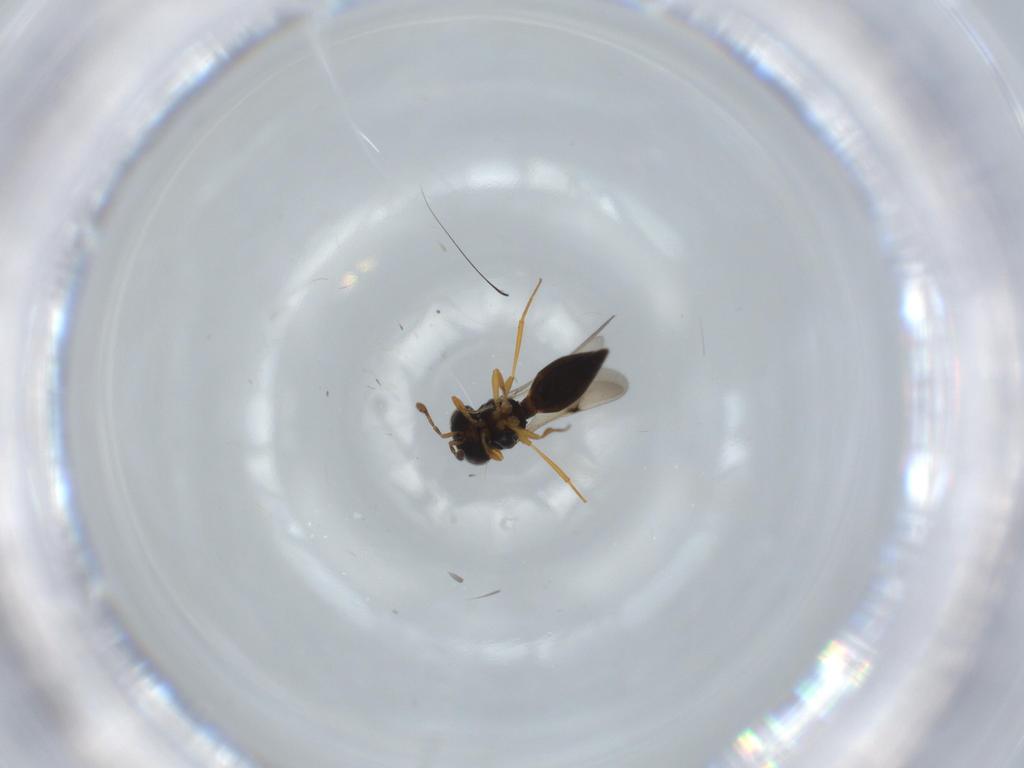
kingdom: Animalia
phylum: Arthropoda
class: Insecta
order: Hymenoptera
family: Scelionidae
